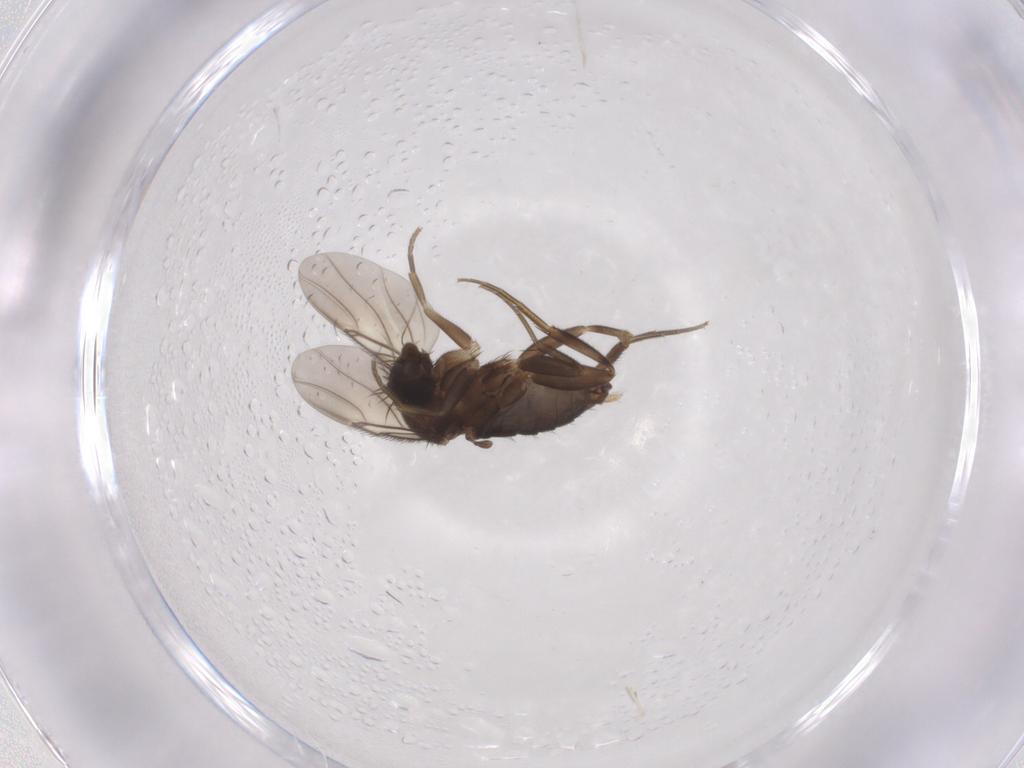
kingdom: Animalia
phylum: Arthropoda
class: Insecta
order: Diptera
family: Phoridae
